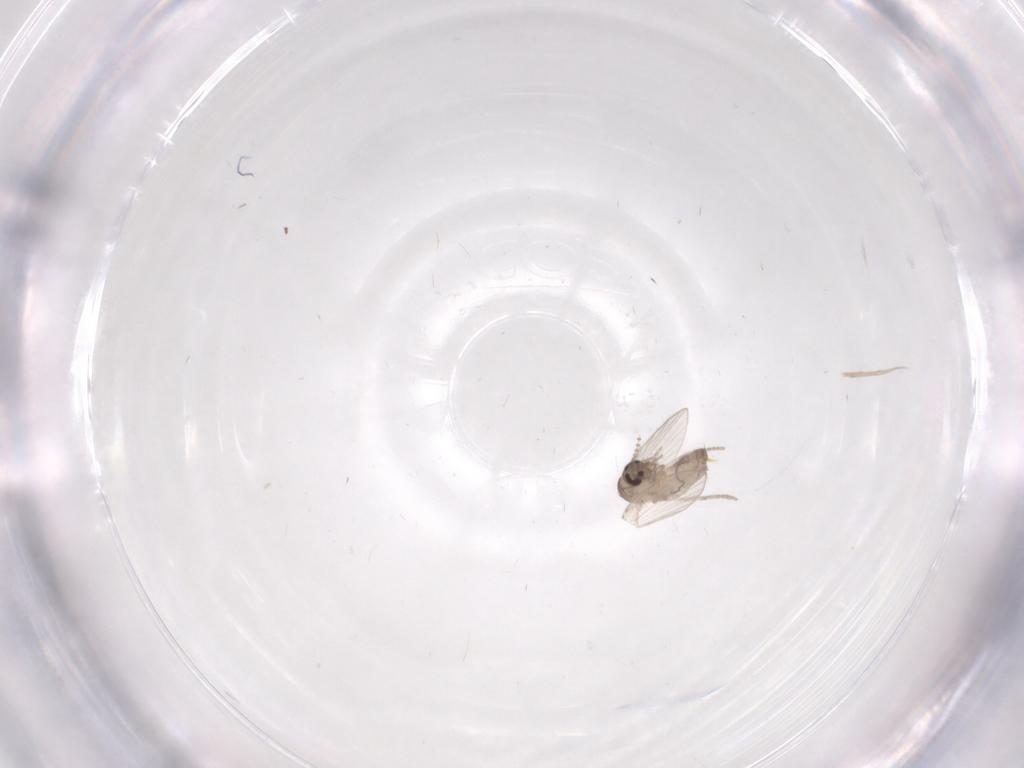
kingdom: Animalia
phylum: Arthropoda
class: Insecta
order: Diptera
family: Psychodidae
